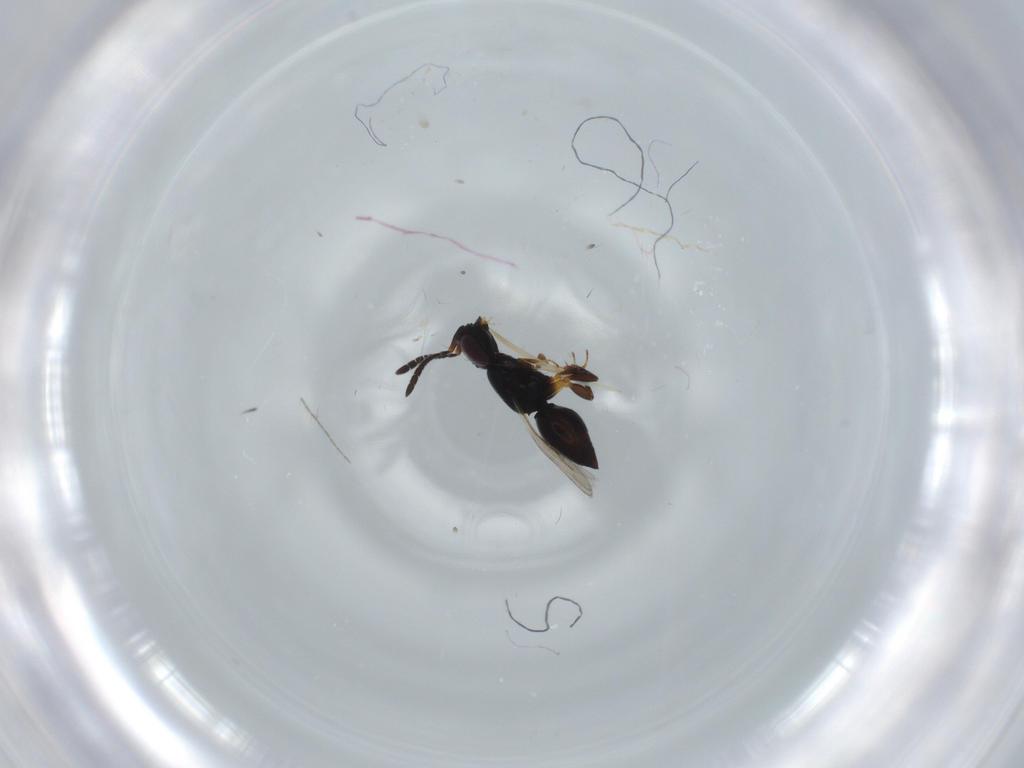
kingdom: Animalia
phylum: Arthropoda
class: Insecta
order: Hymenoptera
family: Ceraphronidae
